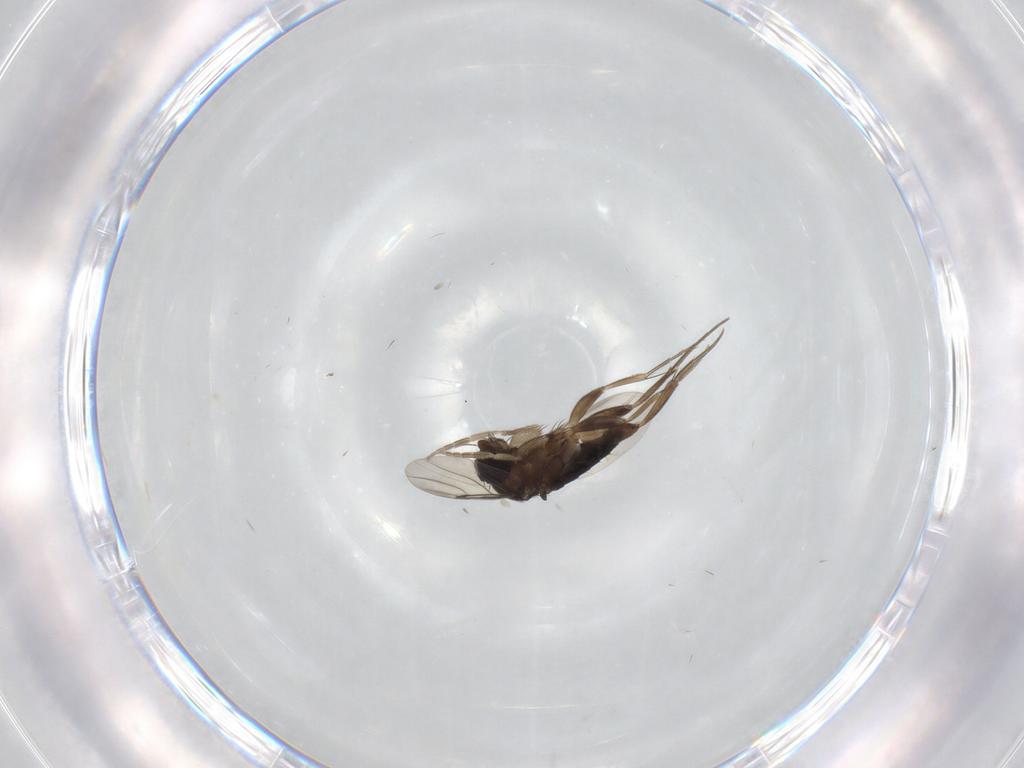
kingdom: Animalia
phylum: Arthropoda
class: Insecta
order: Diptera
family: Phoridae
